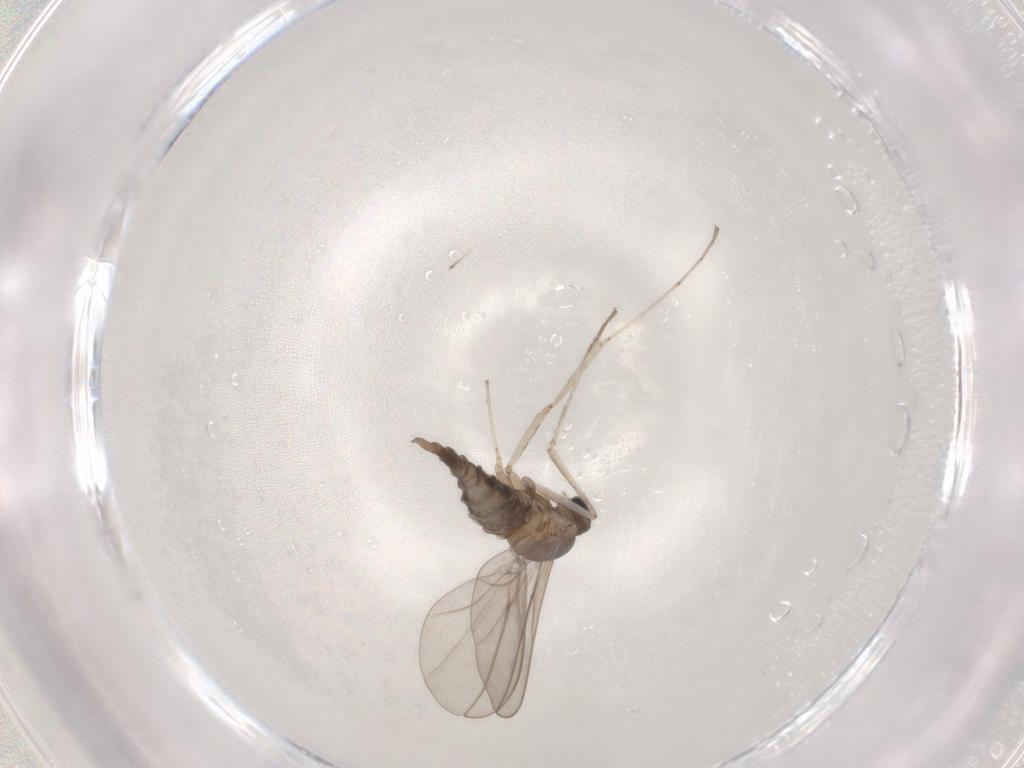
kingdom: Animalia
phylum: Arthropoda
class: Insecta
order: Diptera
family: Cecidomyiidae
